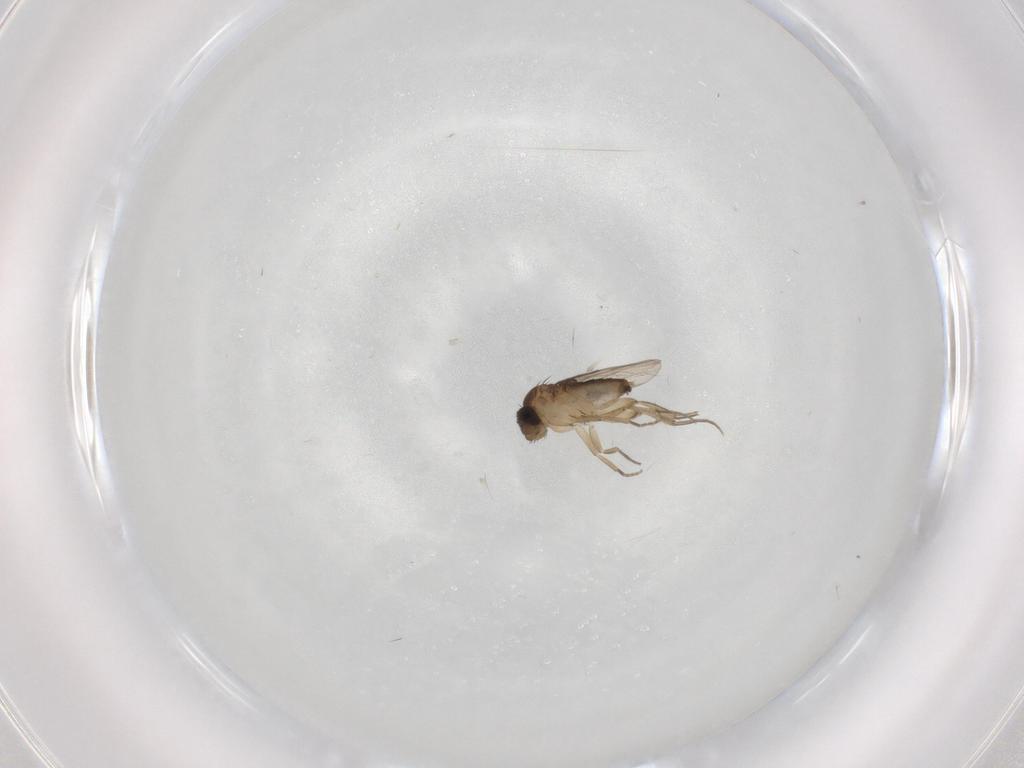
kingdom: Animalia
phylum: Arthropoda
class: Insecta
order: Diptera
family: Phoridae
